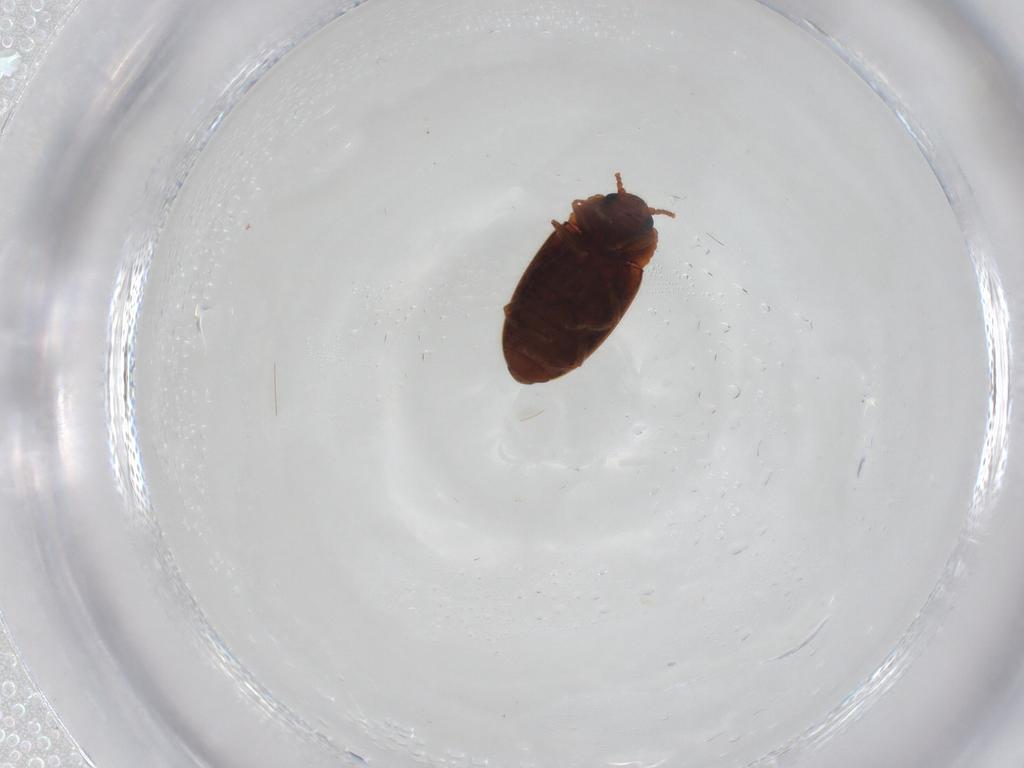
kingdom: Animalia
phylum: Arthropoda
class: Insecta
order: Coleoptera
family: Erotylidae
